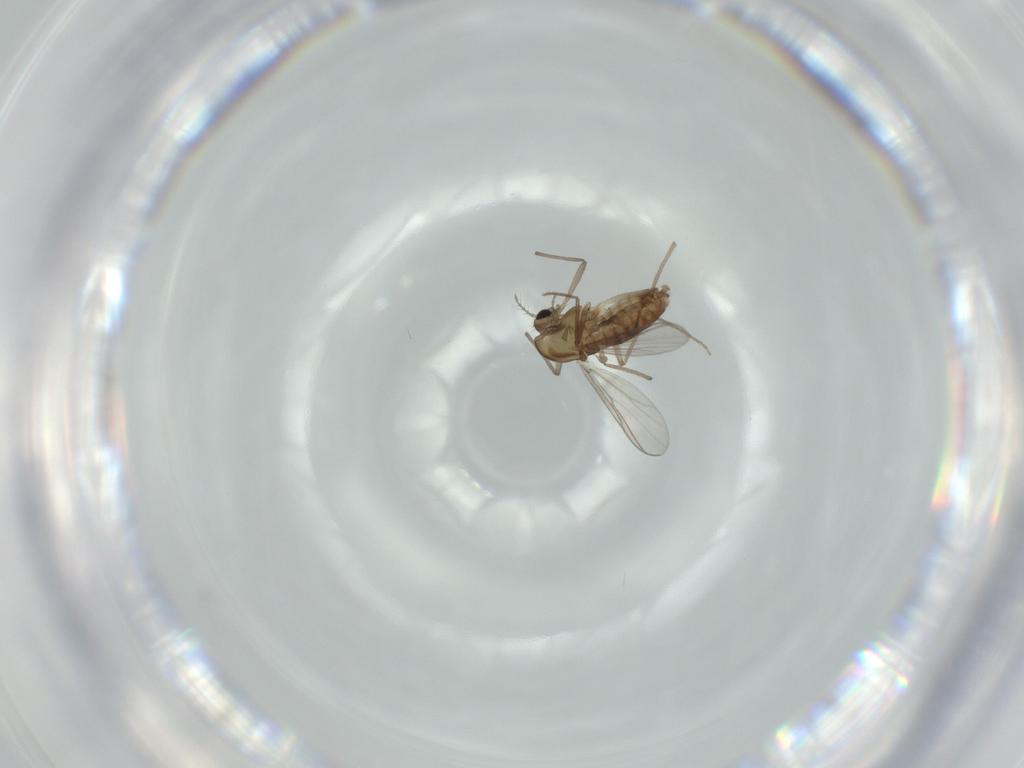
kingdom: Animalia
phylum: Arthropoda
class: Insecta
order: Diptera
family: Chironomidae
